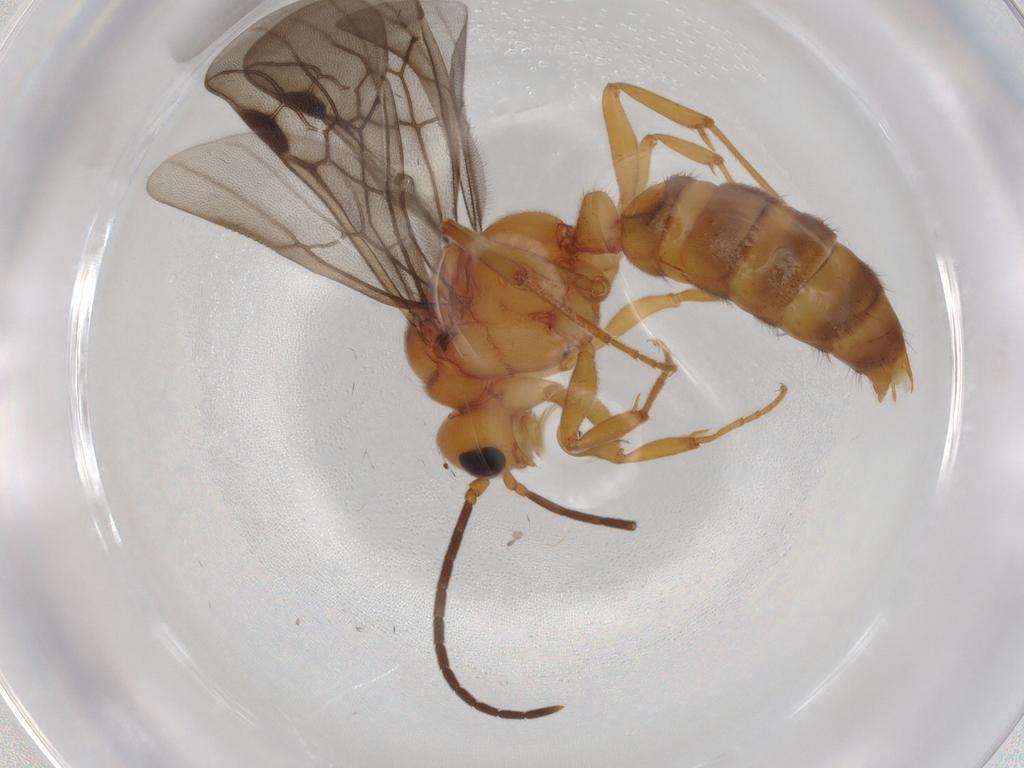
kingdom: Animalia
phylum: Arthropoda
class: Insecta
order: Hymenoptera
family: Formicidae
